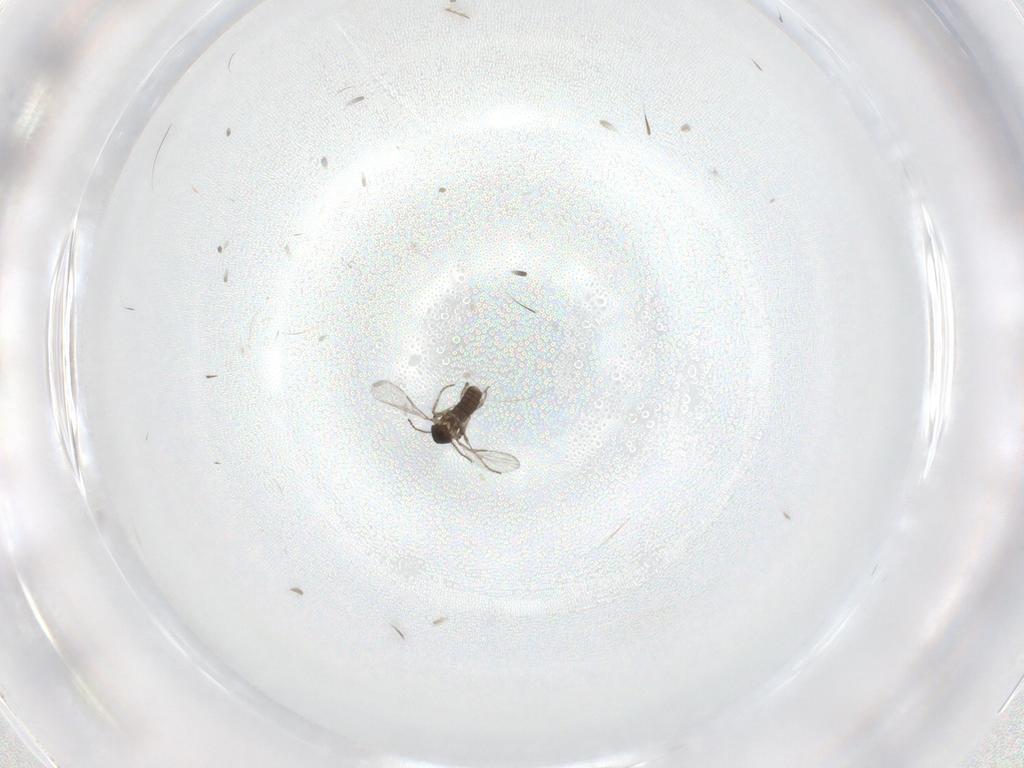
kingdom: Animalia
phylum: Arthropoda
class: Insecta
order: Diptera
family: Ceratopogonidae
